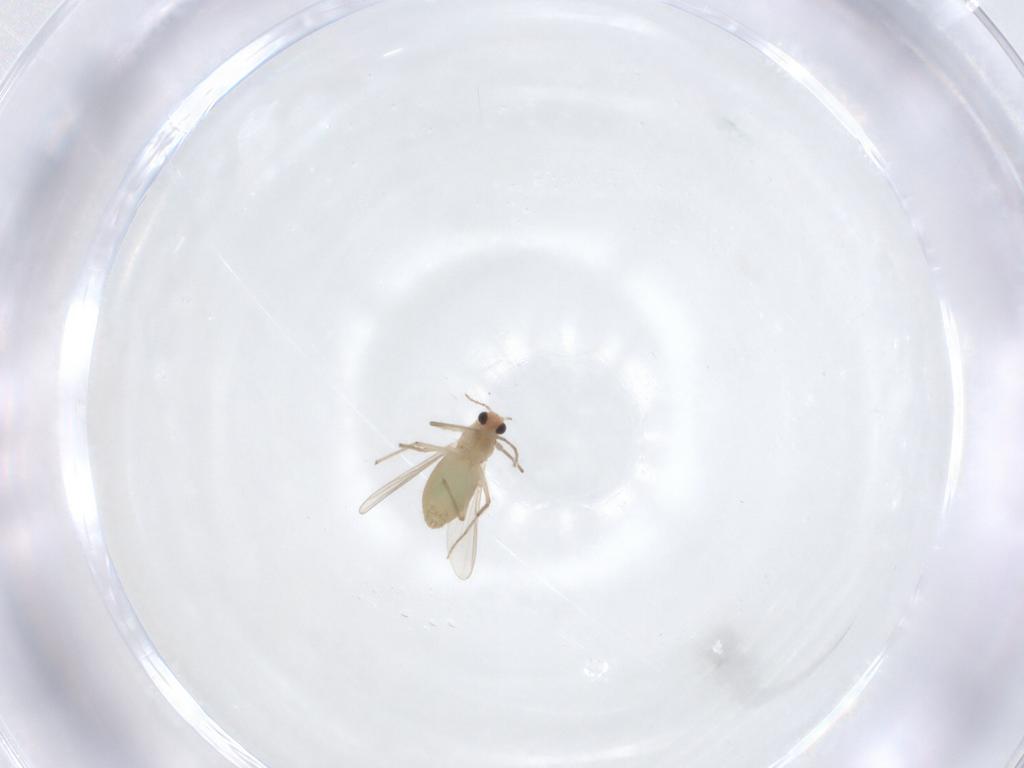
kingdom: Animalia
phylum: Arthropoda
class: Insecta
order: Diptera
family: Chironomidae
